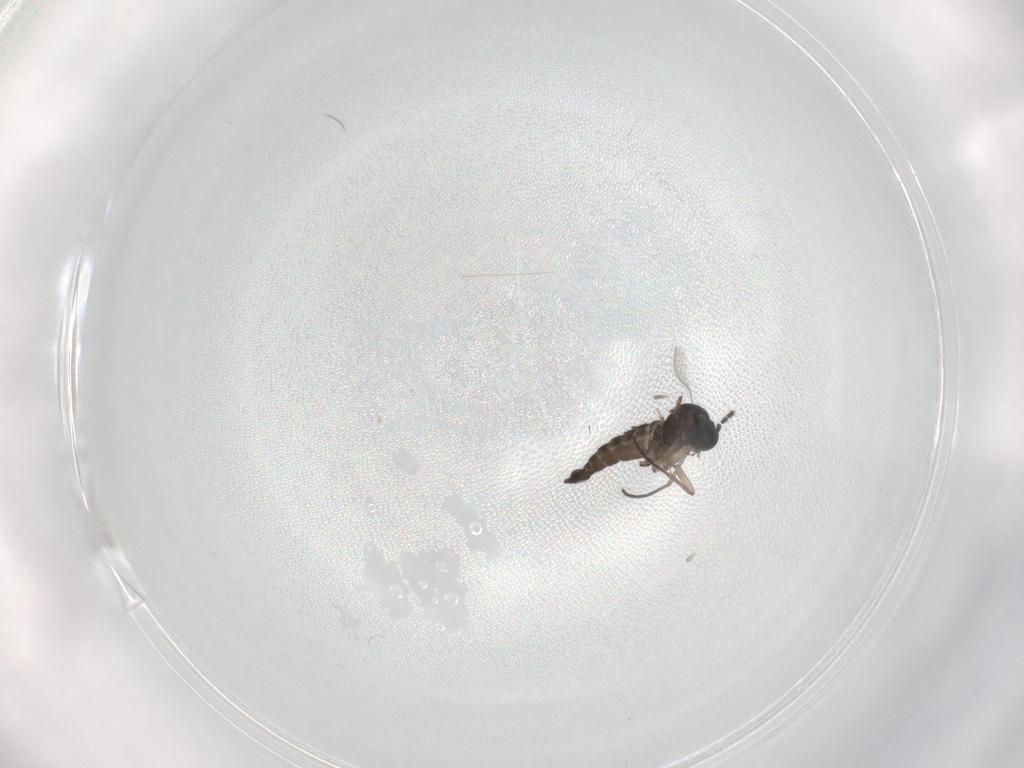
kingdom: Animalia
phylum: Arthropoda
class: Insecta
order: Diptera
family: Sciaridae
